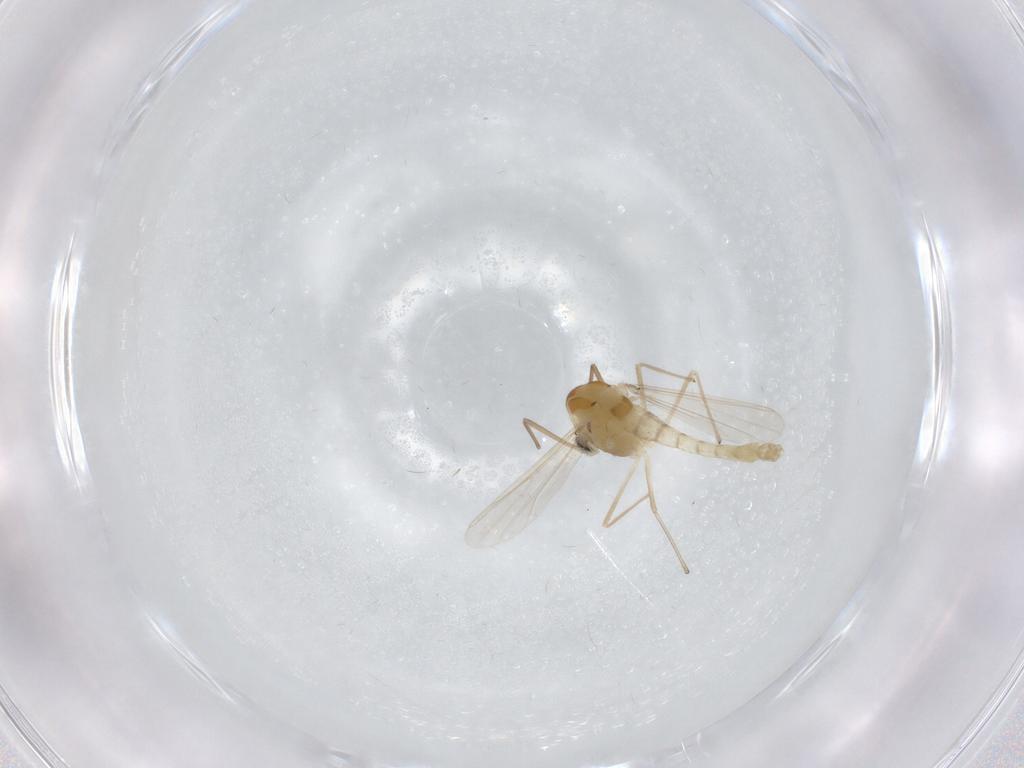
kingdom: Animalia
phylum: Arthropoda
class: Insecta
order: Diptera
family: Chironomidae
